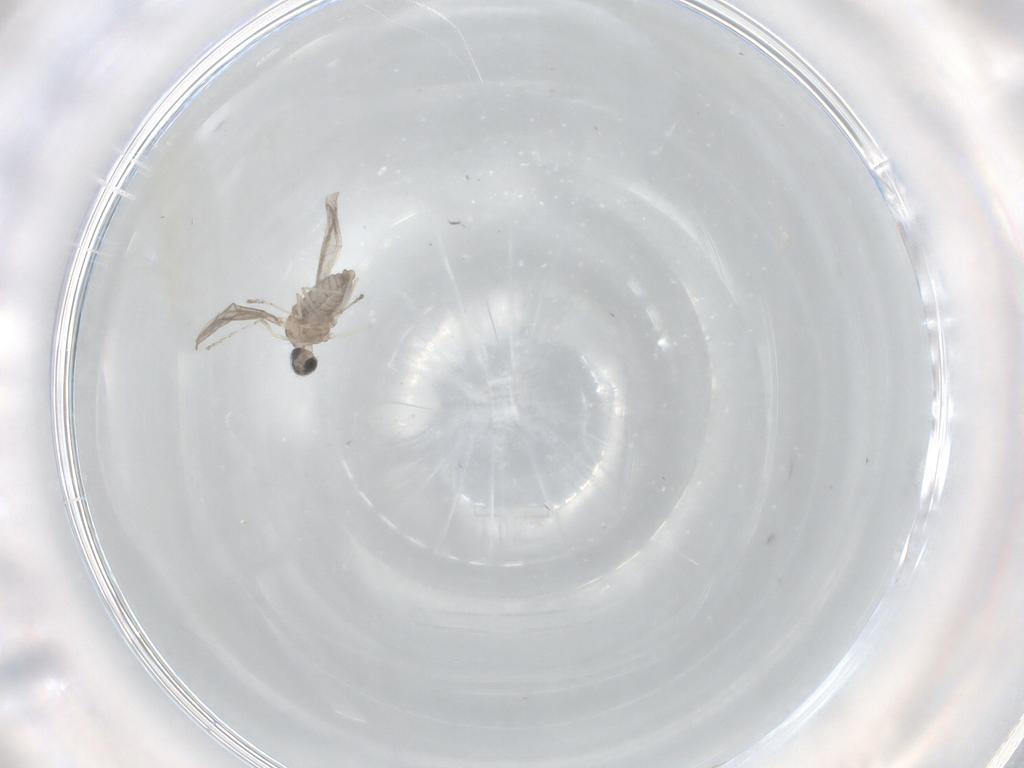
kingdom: Animalia
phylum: Arthropoda
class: Insecta
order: Diptera
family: Cecidomyiidae
